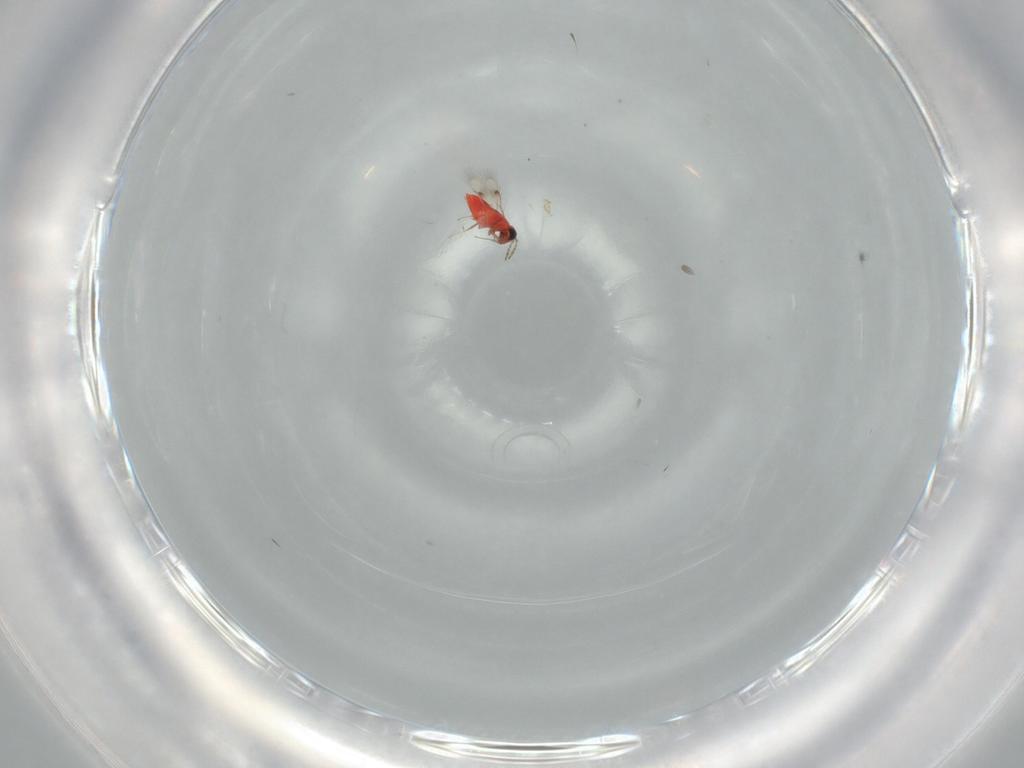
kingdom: Animalia
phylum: Arthropoda
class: Insecta
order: Hymenoptera
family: Trichogrammatidae
